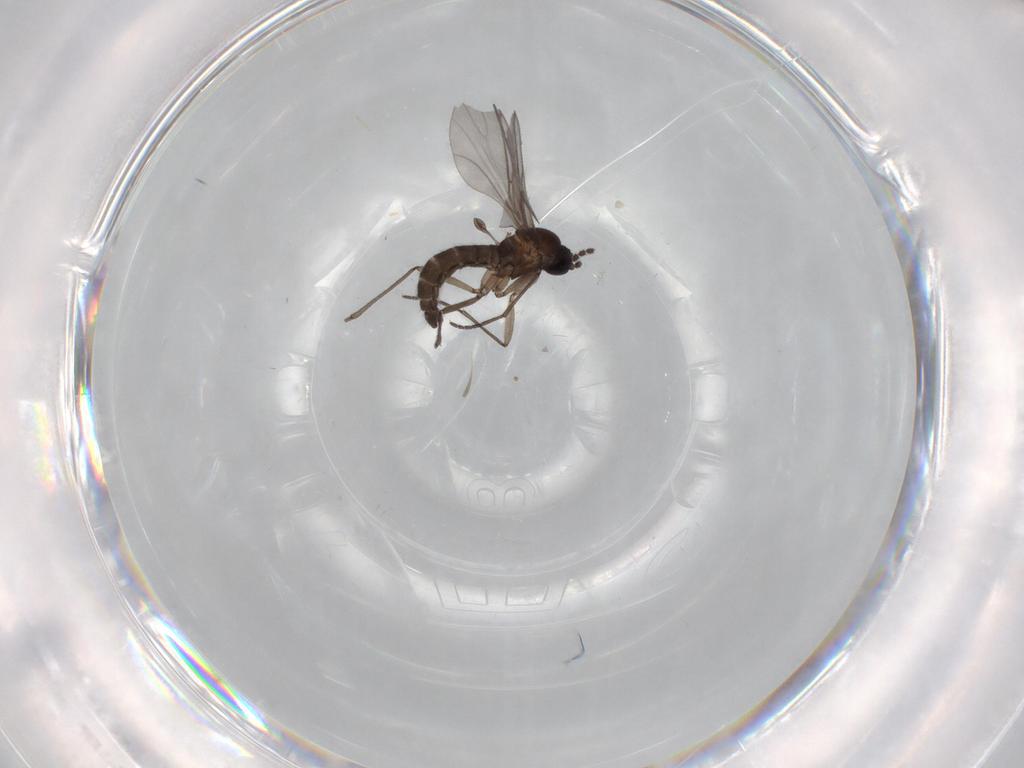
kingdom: Animalia
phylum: Arthropoda
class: Insecta
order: Diptera
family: Sciaridae
